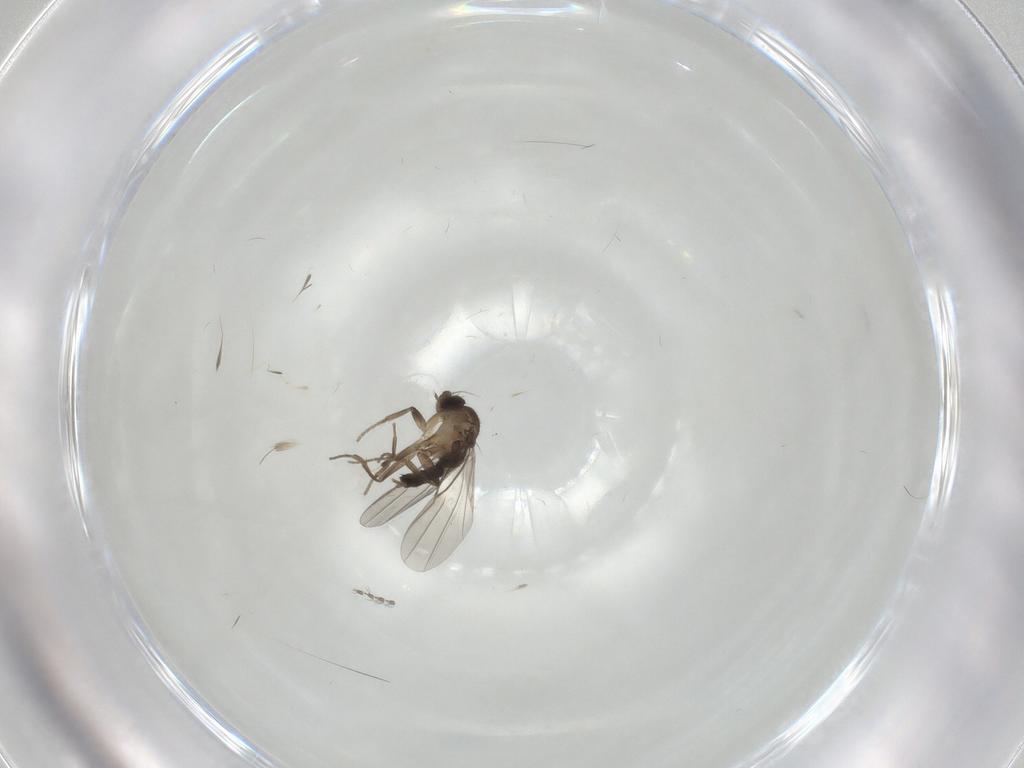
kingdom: Animalia
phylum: Arthropoda
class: Insecta
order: Diptera
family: Phoridae
